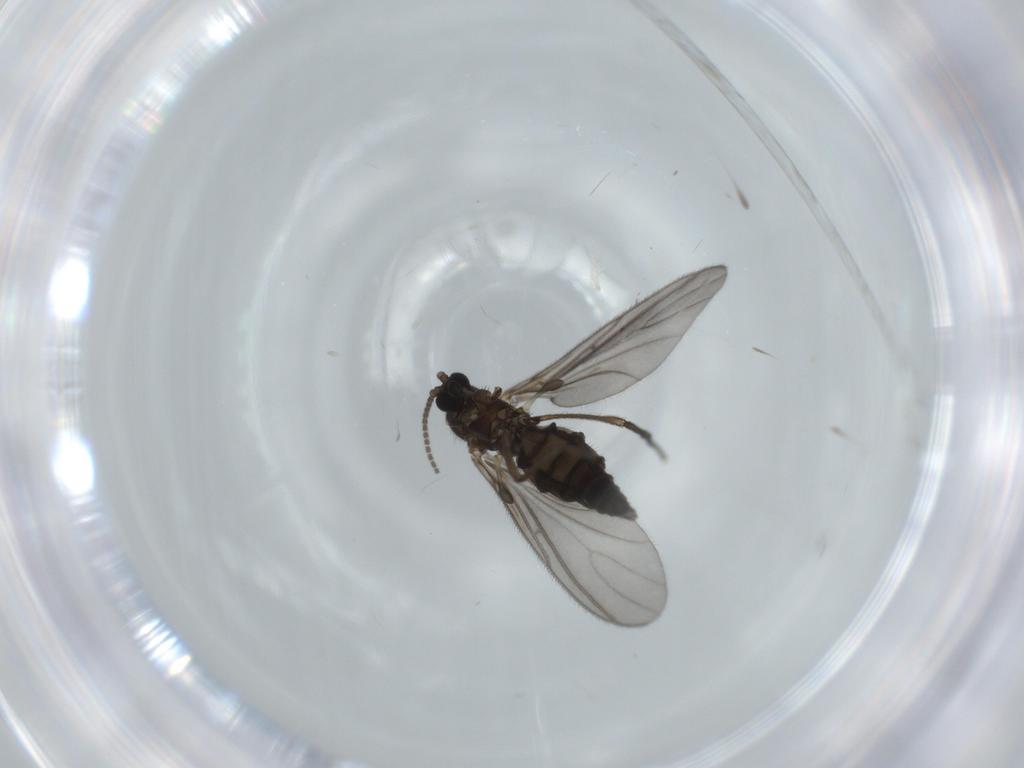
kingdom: Animalia
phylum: Arthropoda
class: Insecta
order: Diptera
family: Sciaridae
